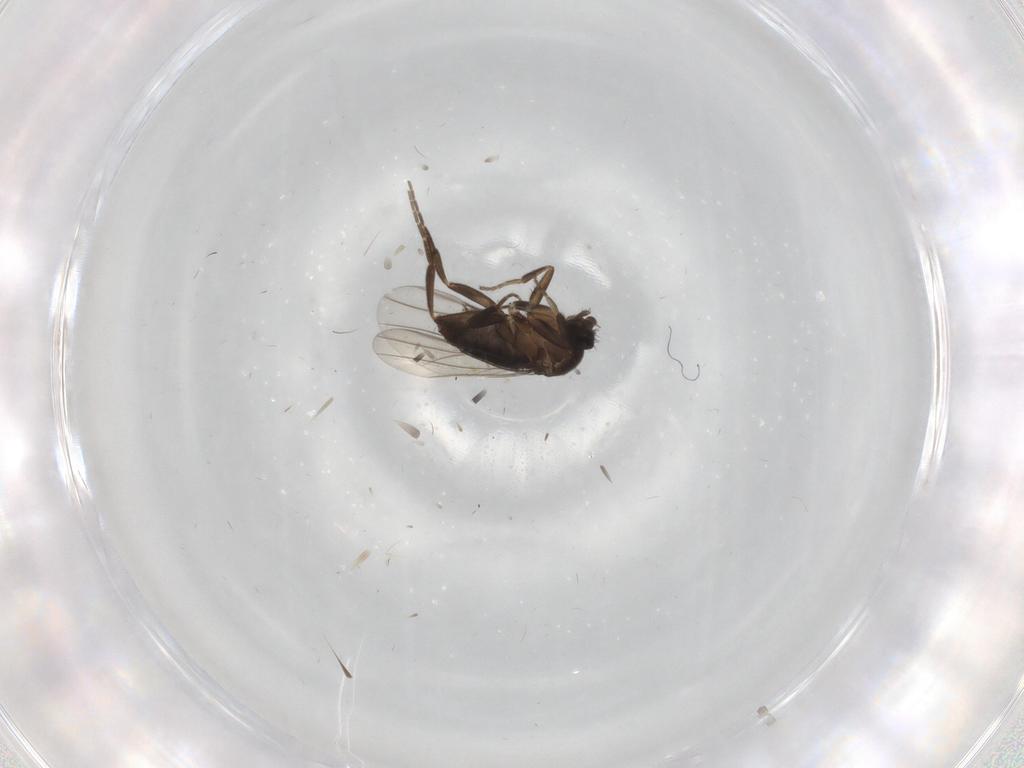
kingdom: Animalia
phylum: Arthropoda
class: Insecta
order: Diptera
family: Phoridae
